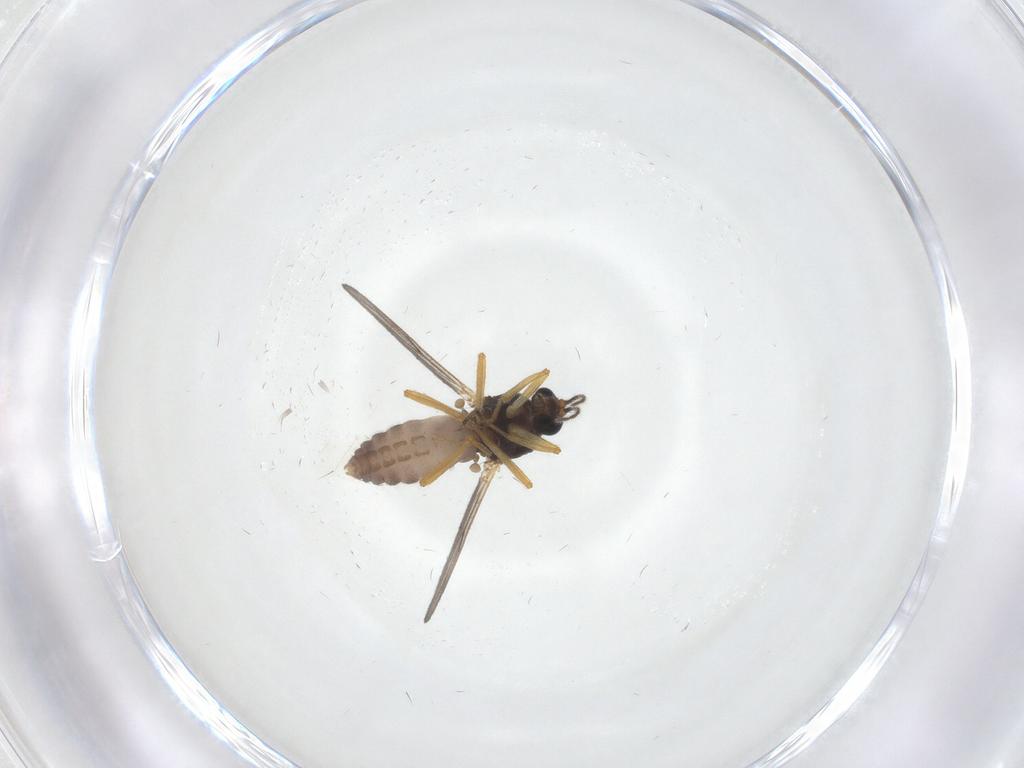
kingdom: Animalia
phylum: Arthropoda
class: Insecta
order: Diptera
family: Ceratopogonidae
